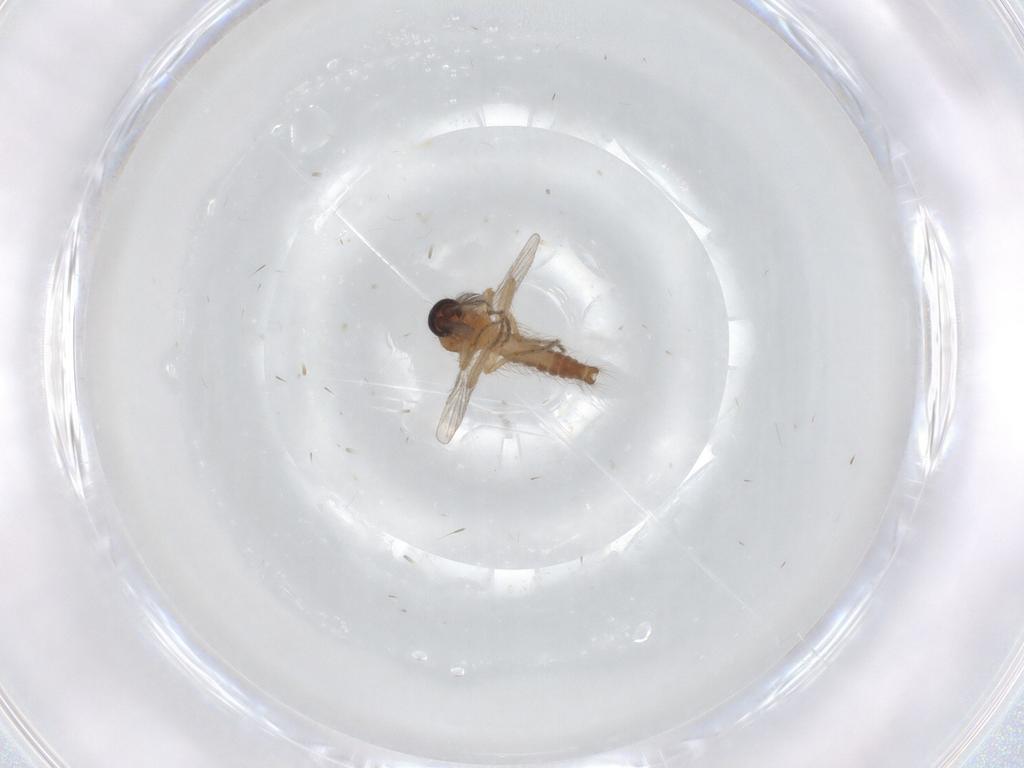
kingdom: Animalia
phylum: Arthropoda
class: Insecta
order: Diptera
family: Ceratopogonidae
